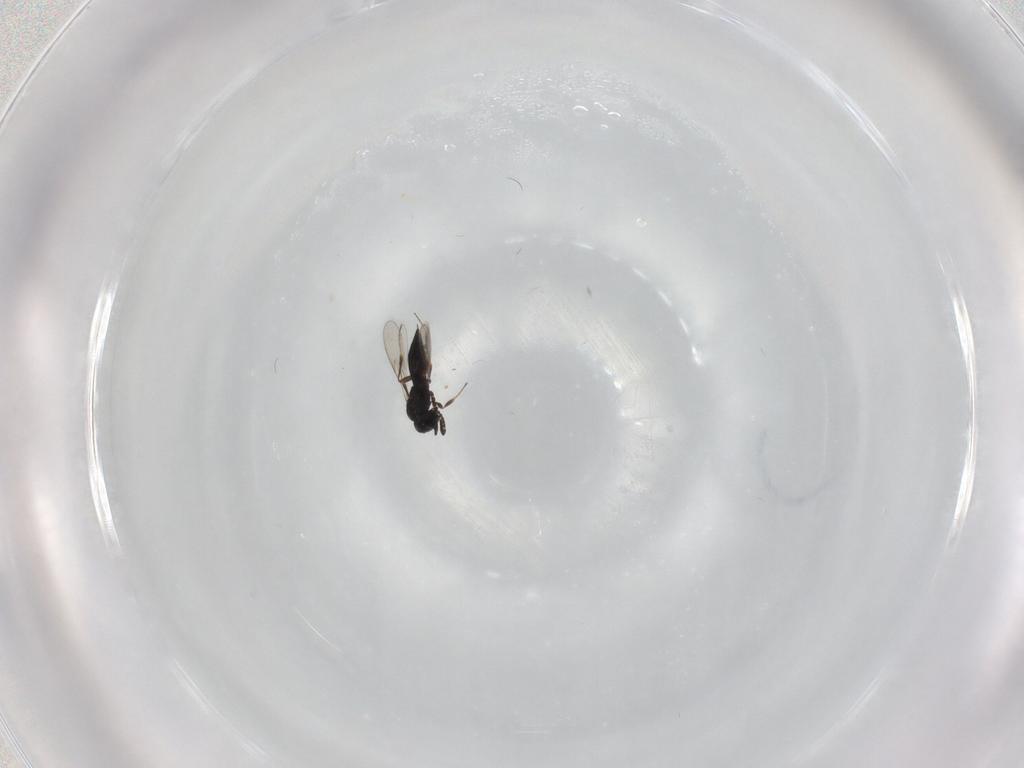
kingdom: Animalia
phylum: Arthropoda
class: Insecta
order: Hymenoptera
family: Scelionidae
